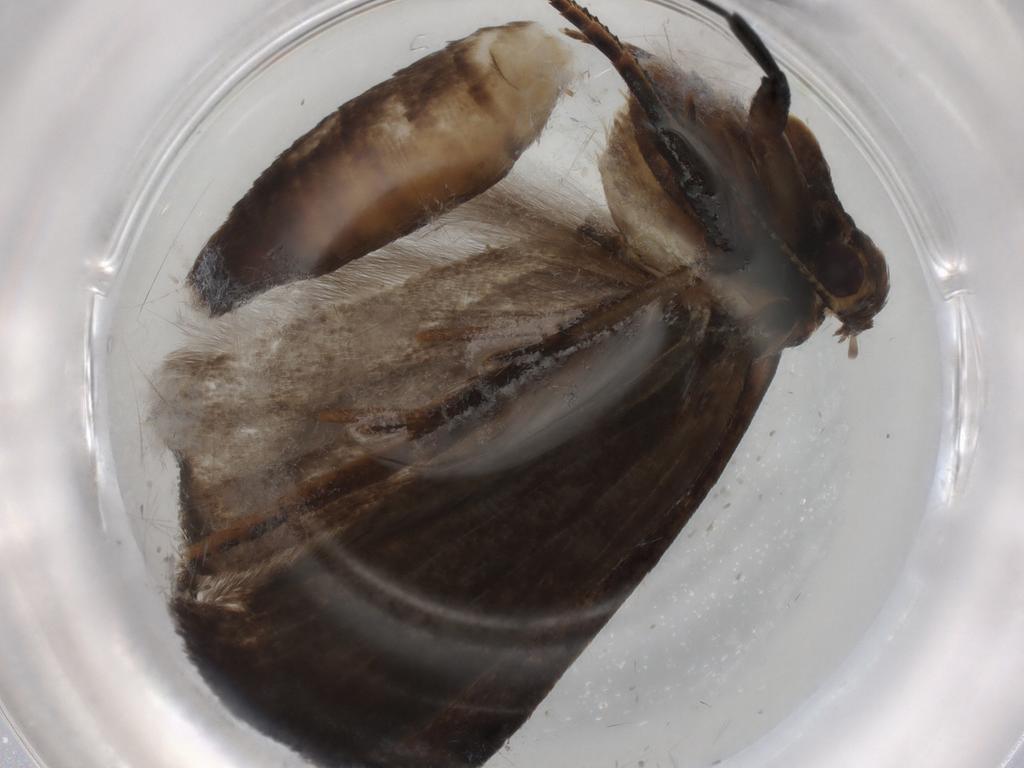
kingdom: Animalia
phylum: Arthropoda
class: Insecta
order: Lepidoptera
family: Gelechiidae
